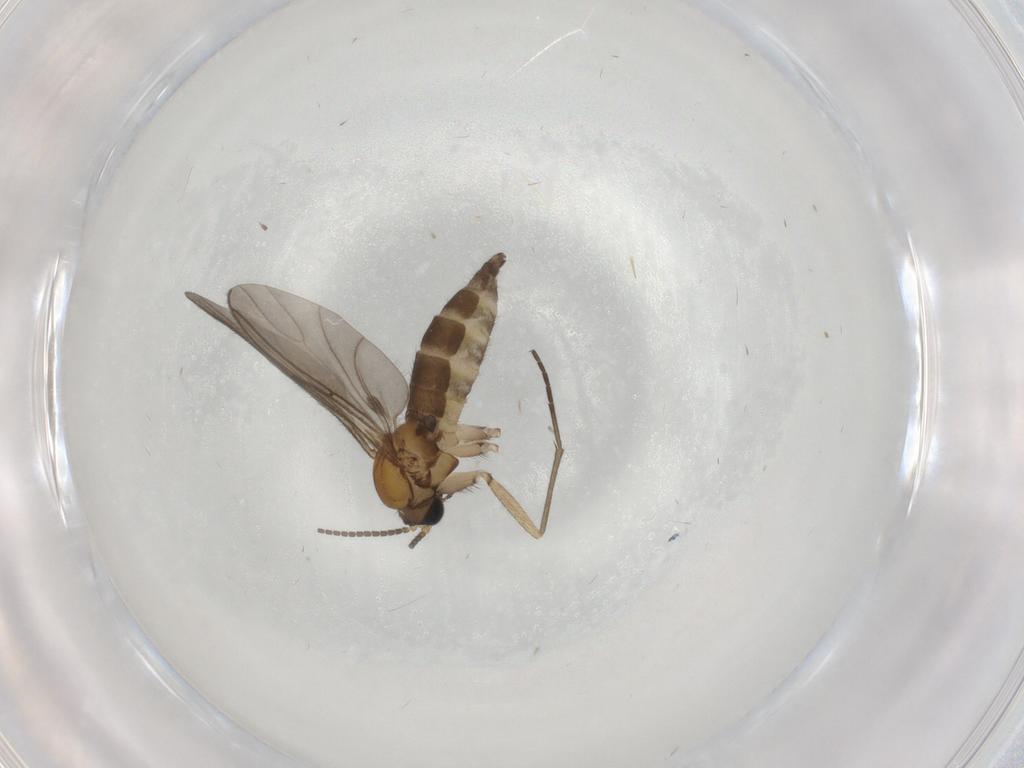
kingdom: Animalia
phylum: Arthropoda
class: Insecta
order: Diptera
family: Sciaridae
